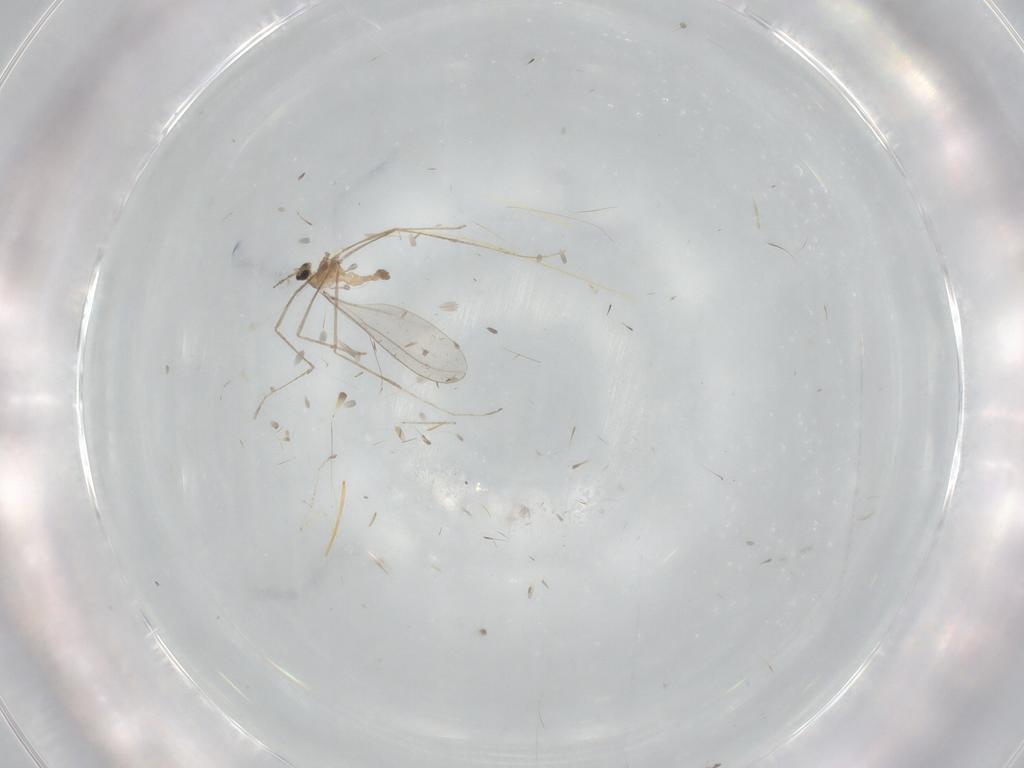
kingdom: Animalia
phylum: Arthropoda
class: Insecta
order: Diptera
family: Cecidomyiidae
